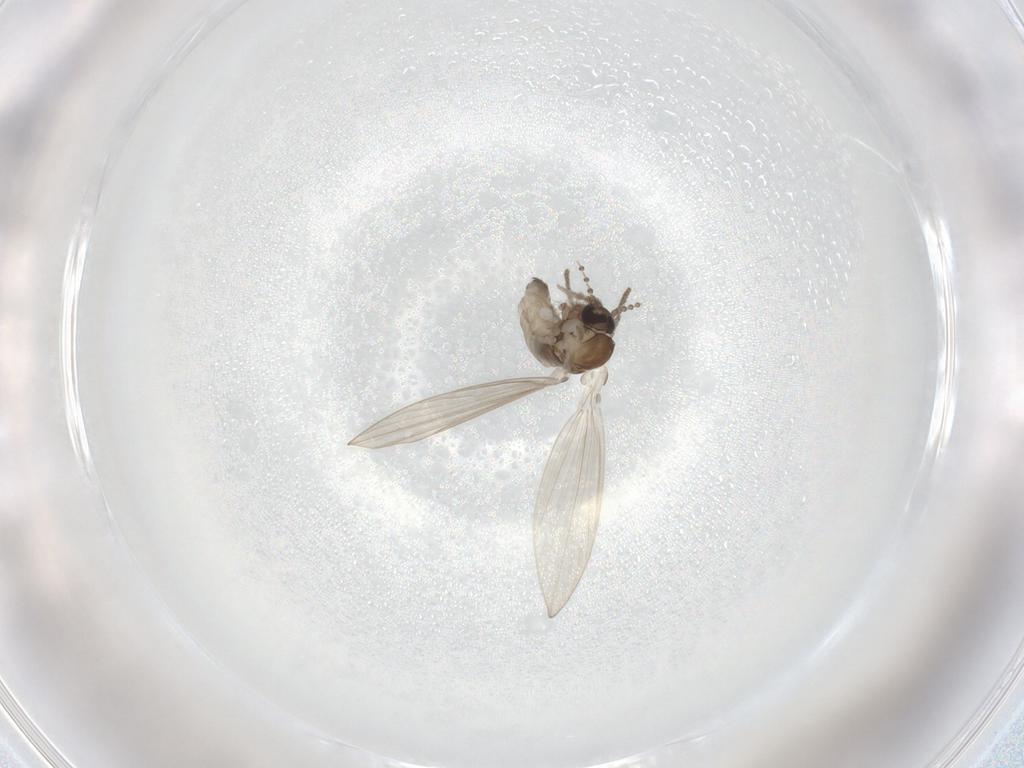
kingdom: Animalia
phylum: Arthropoda
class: Insecta
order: Diptera
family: Psychodidae
